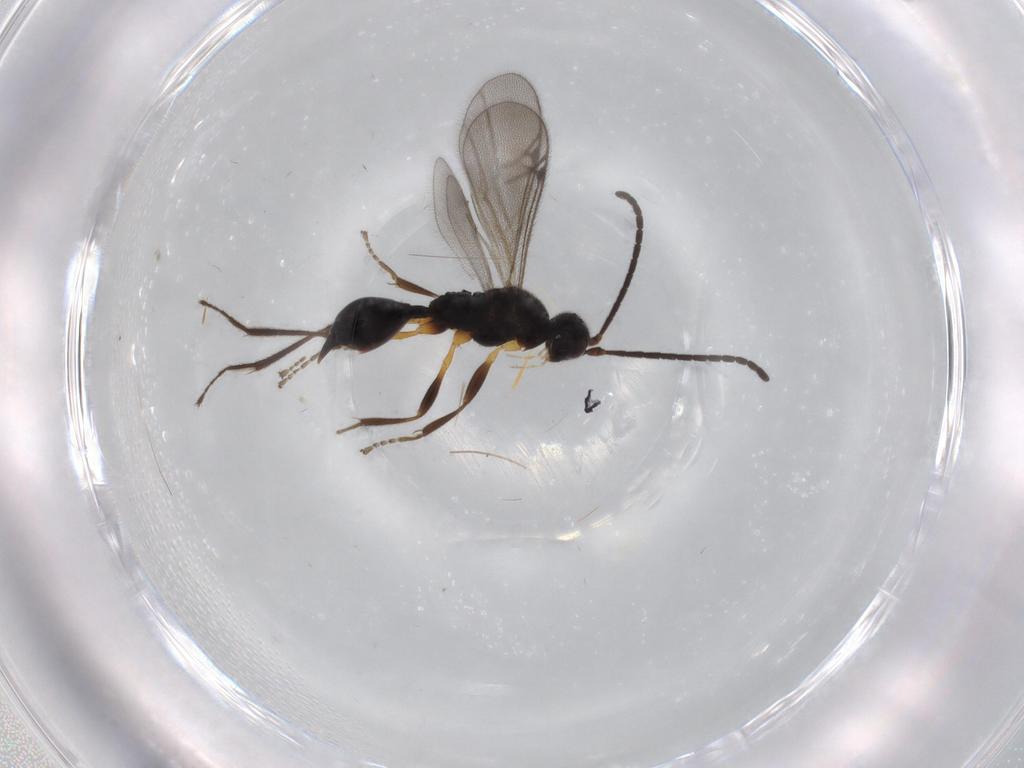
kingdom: Animalia
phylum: Arthropoda
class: Insecta
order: Hymenoptera
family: Proctotrupidae
